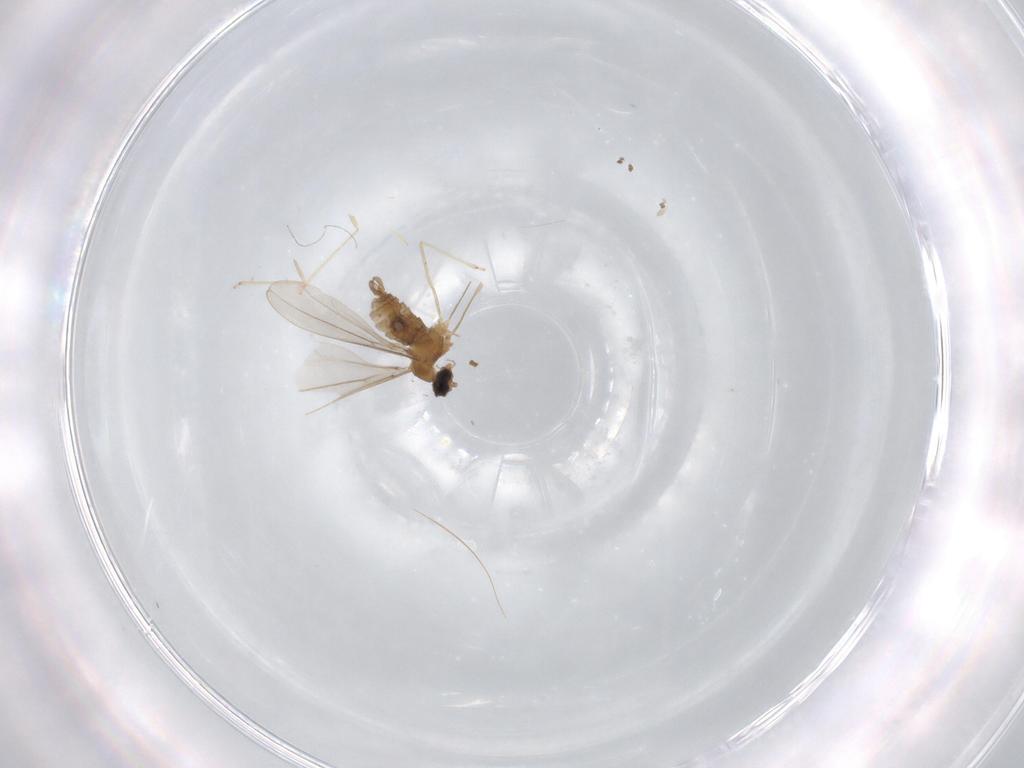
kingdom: Animalia
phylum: Arthropoda
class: Insecta
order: Diptera
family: Cecidomyiidae
